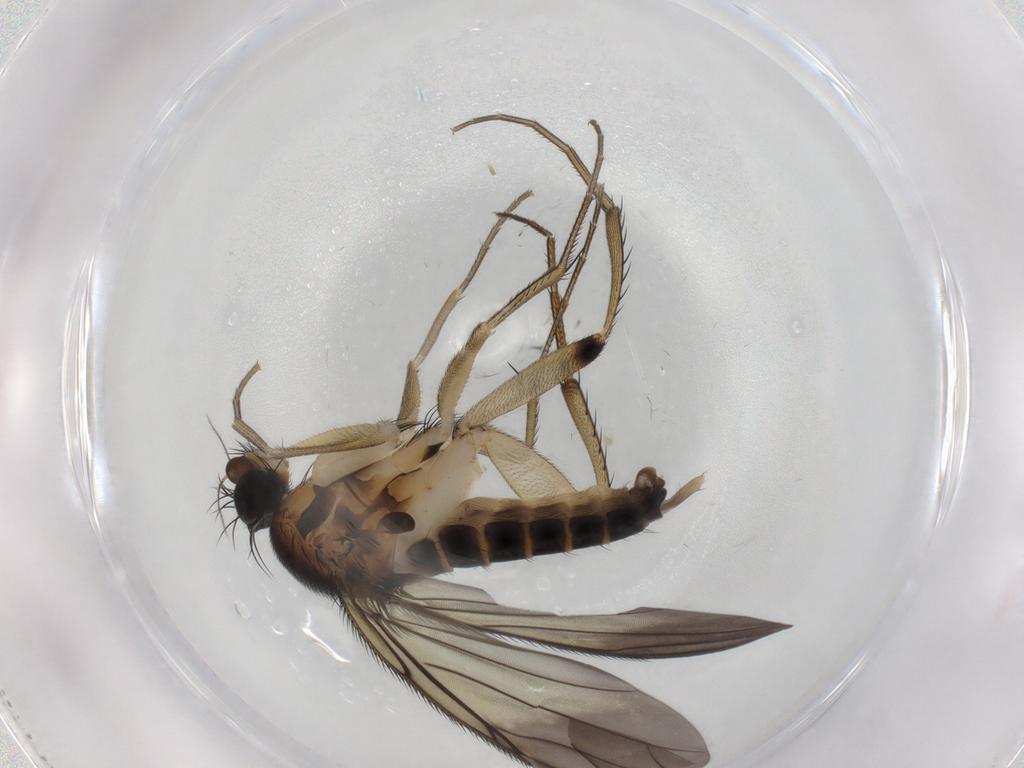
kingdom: Animalia
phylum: Arthropoda
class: Insecta
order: Diptera
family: Phoridae
